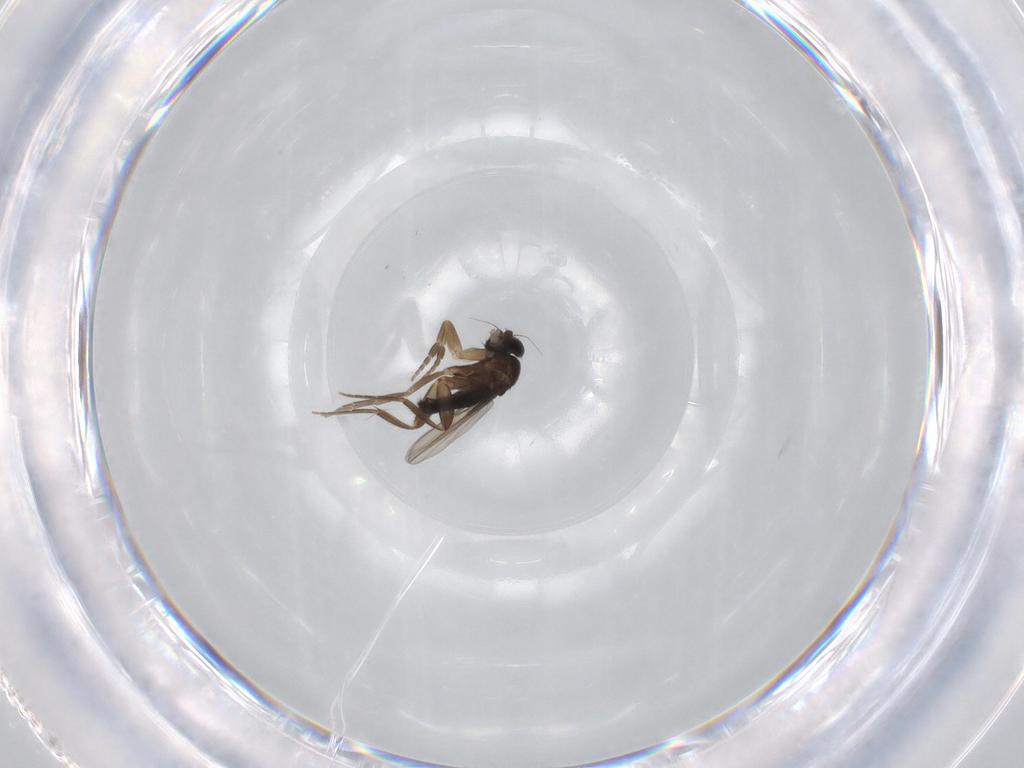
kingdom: Animalia
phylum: Arthropoda
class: Insecta
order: Diptera
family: Phoridae
